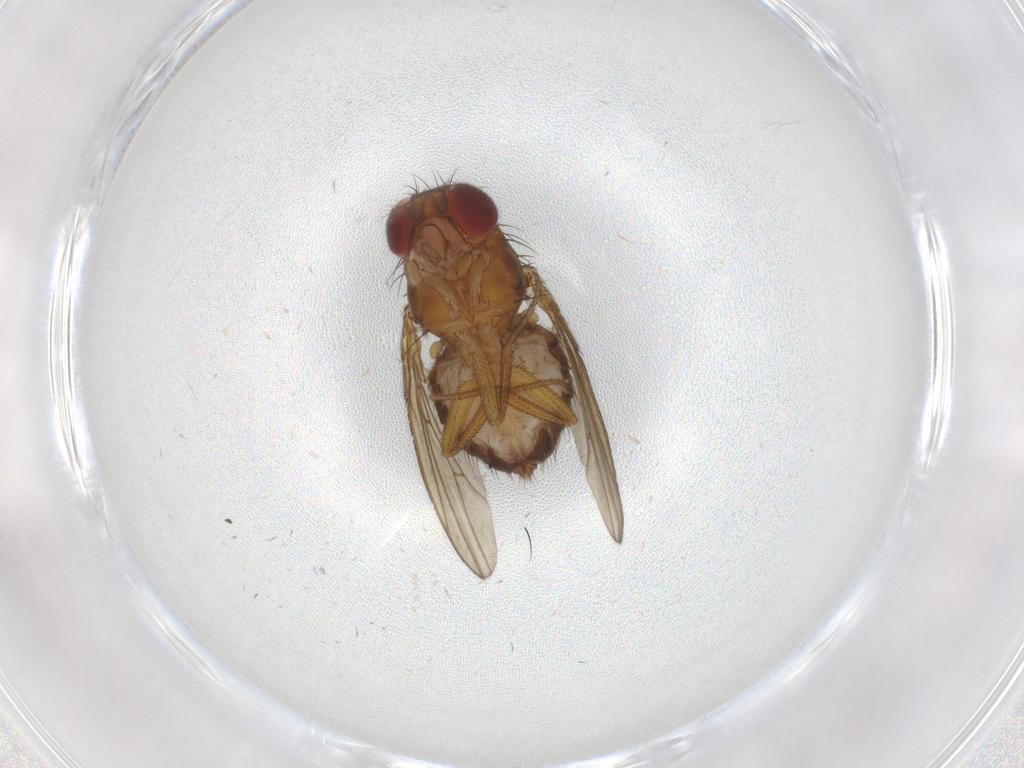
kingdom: Animalia
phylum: Arthropoda
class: Insecta
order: Diptera
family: Drosophilidae
